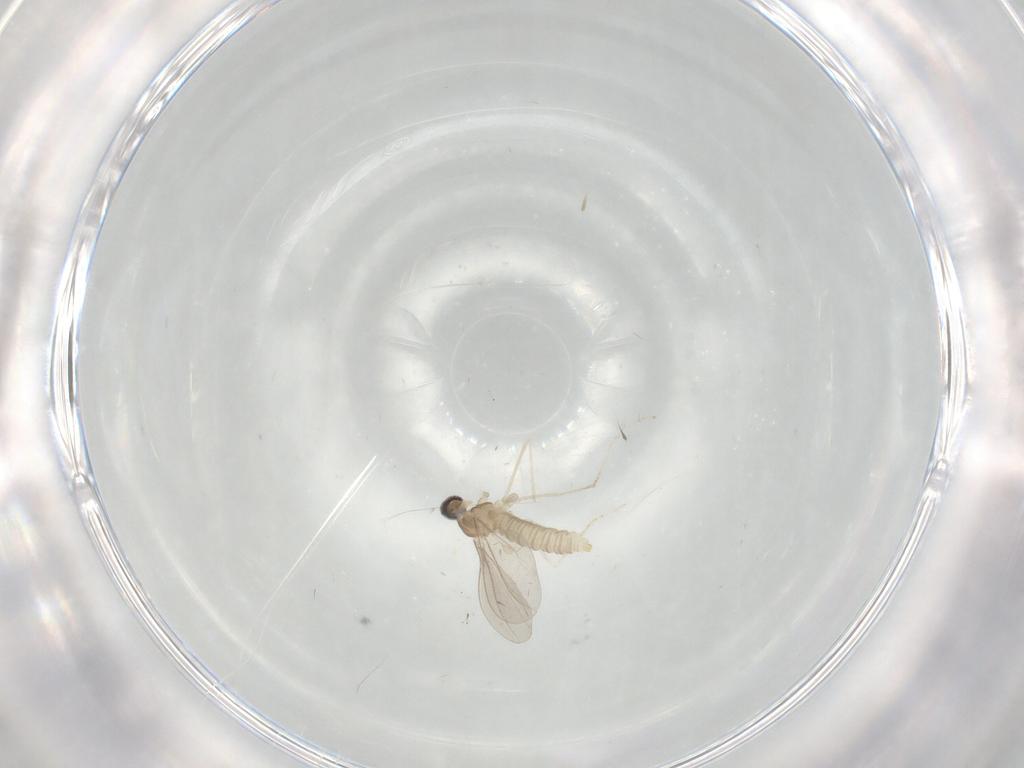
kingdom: Animalia
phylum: Arthropoda
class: Insecta
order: Diptera
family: Cecidomyiidae
